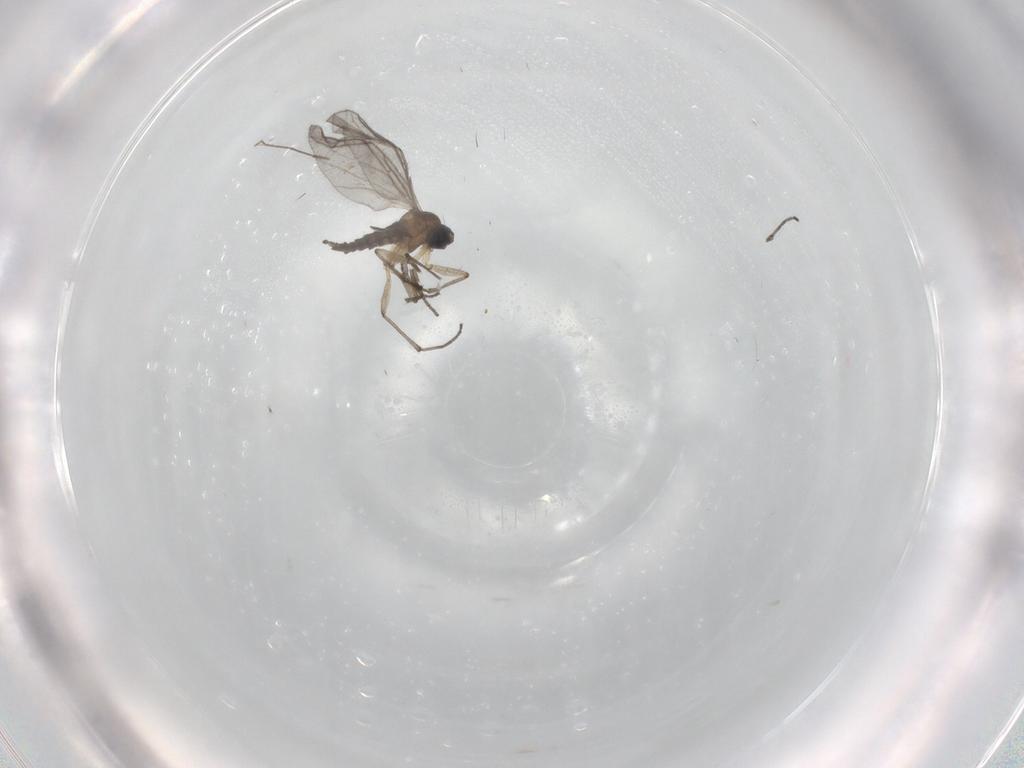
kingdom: Animalia
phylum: Arthropoda
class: Insecta
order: Diptera
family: Sciaridae
